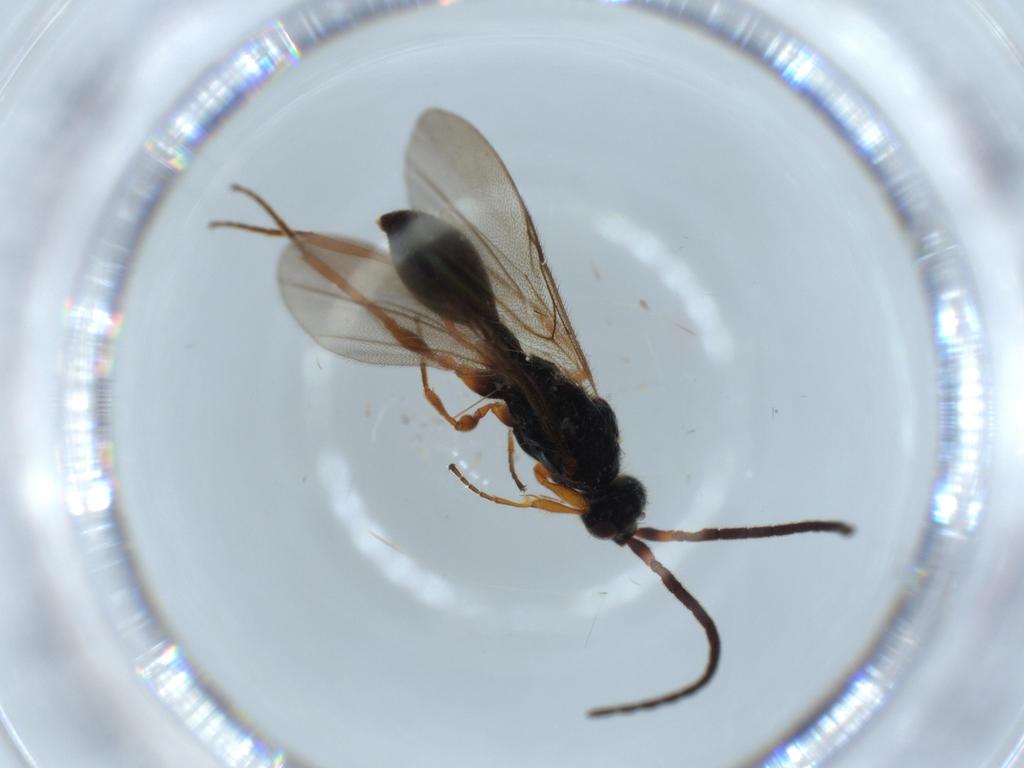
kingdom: Animalia
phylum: Arthropoda
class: Insecta
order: Hymenoptera
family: Diapriidae
